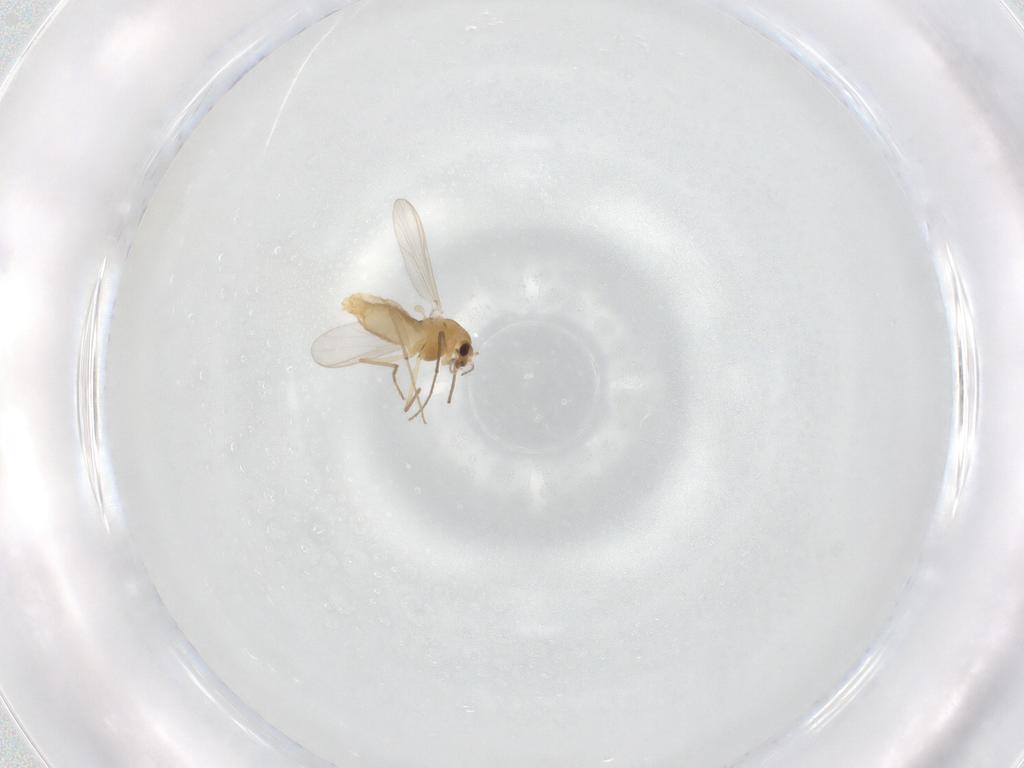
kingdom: Animalia
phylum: Arthropoda
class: Insecta
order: Diptera
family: Chironomidae
